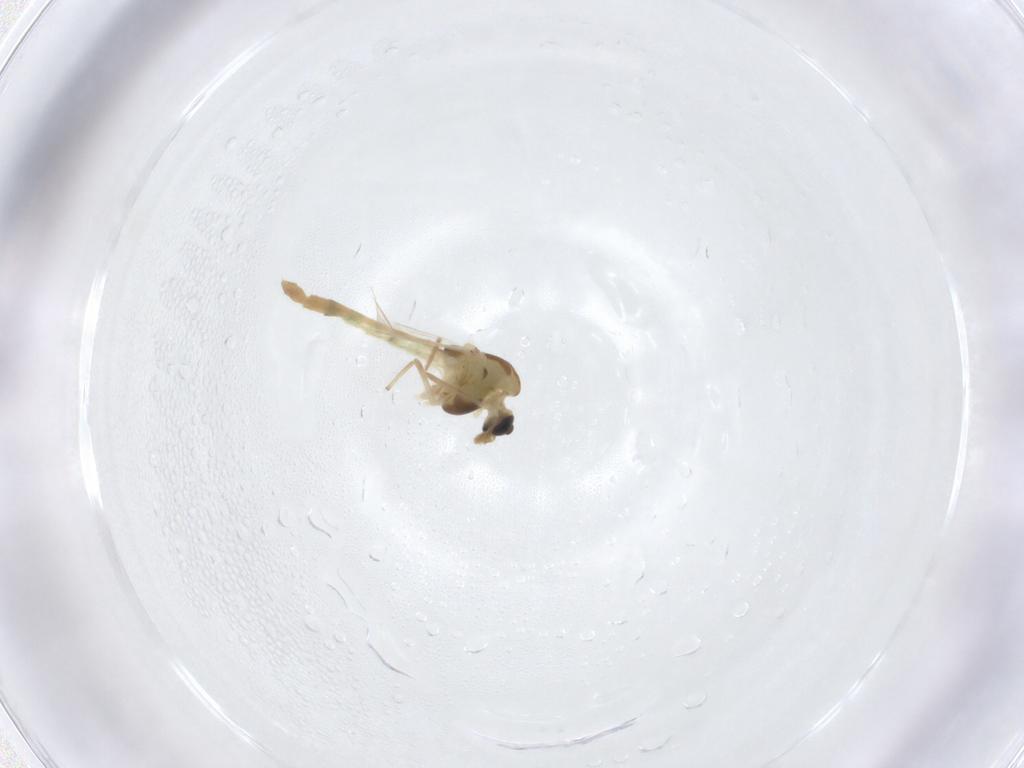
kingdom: Animalia
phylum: Arthropoda
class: Insecta
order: Diptera
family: Chironomidae
